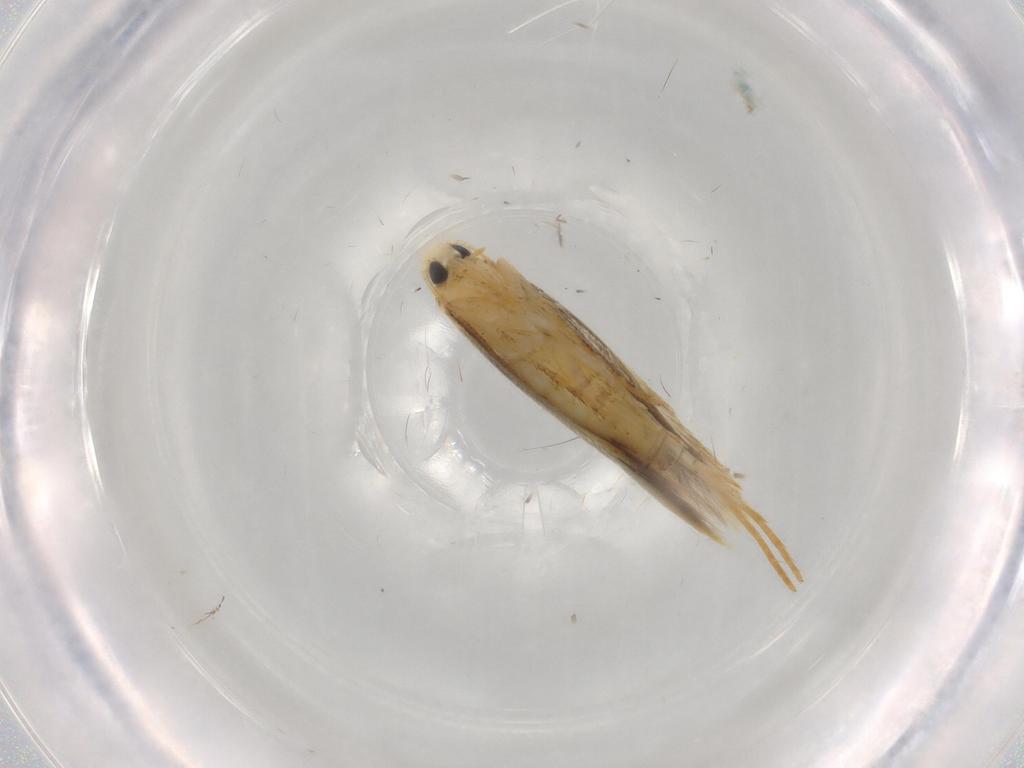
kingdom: Animalia
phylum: Arthropoda
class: Insecta
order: Lepidoptera
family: Tischeriidae
